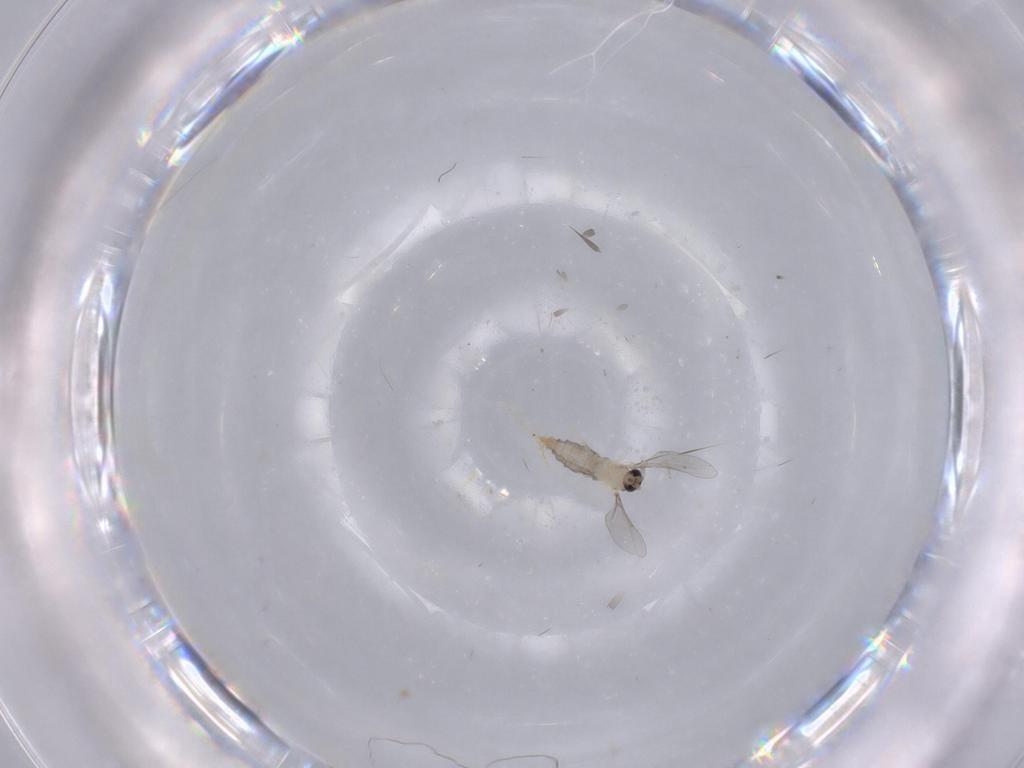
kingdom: Animalia
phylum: Arthropoda
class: Insecta
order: Diptera
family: Milichiidae
